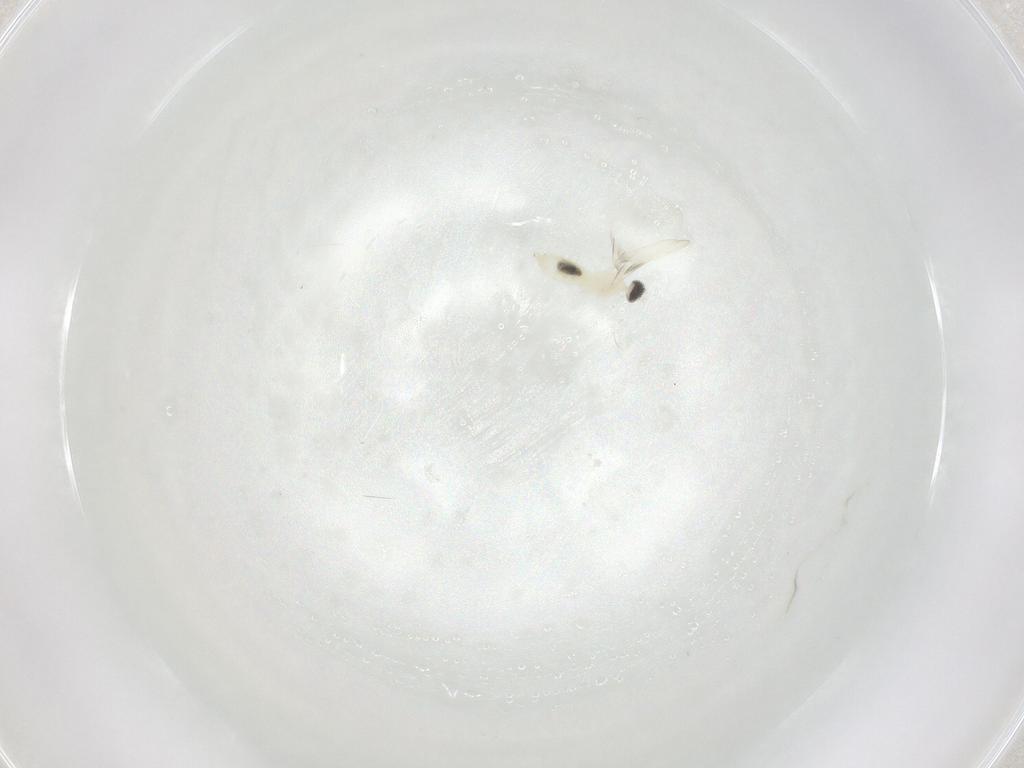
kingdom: Animalia
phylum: Arthropoda
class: Insecta
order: Diptera
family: Cecidomyiidae
